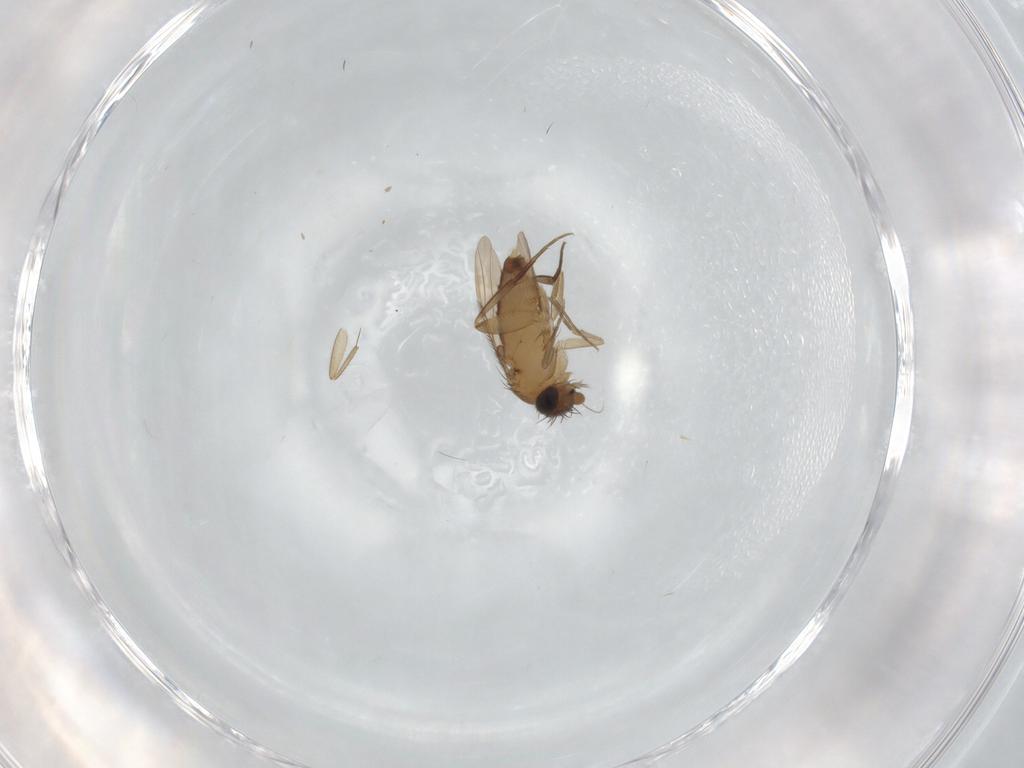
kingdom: Animalia
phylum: Arthropoda
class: Insecta
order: Diptera
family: Phoridae
